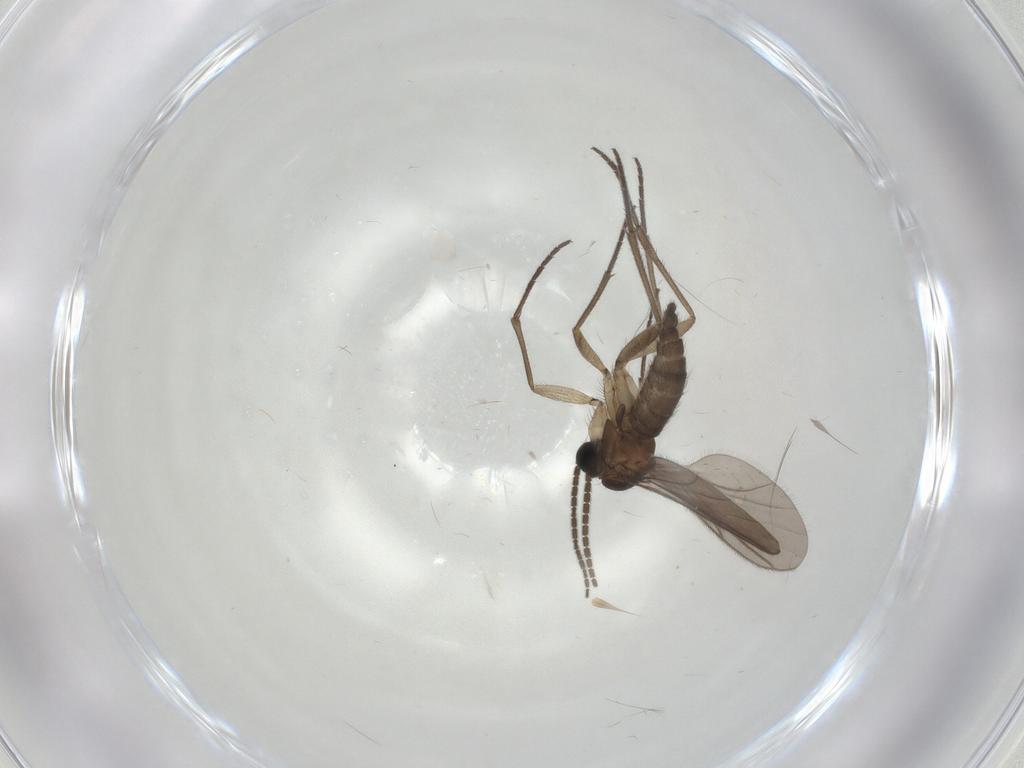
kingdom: Animalia
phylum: Arthropoda
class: Insecta
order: Diptera
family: Sciaridae
